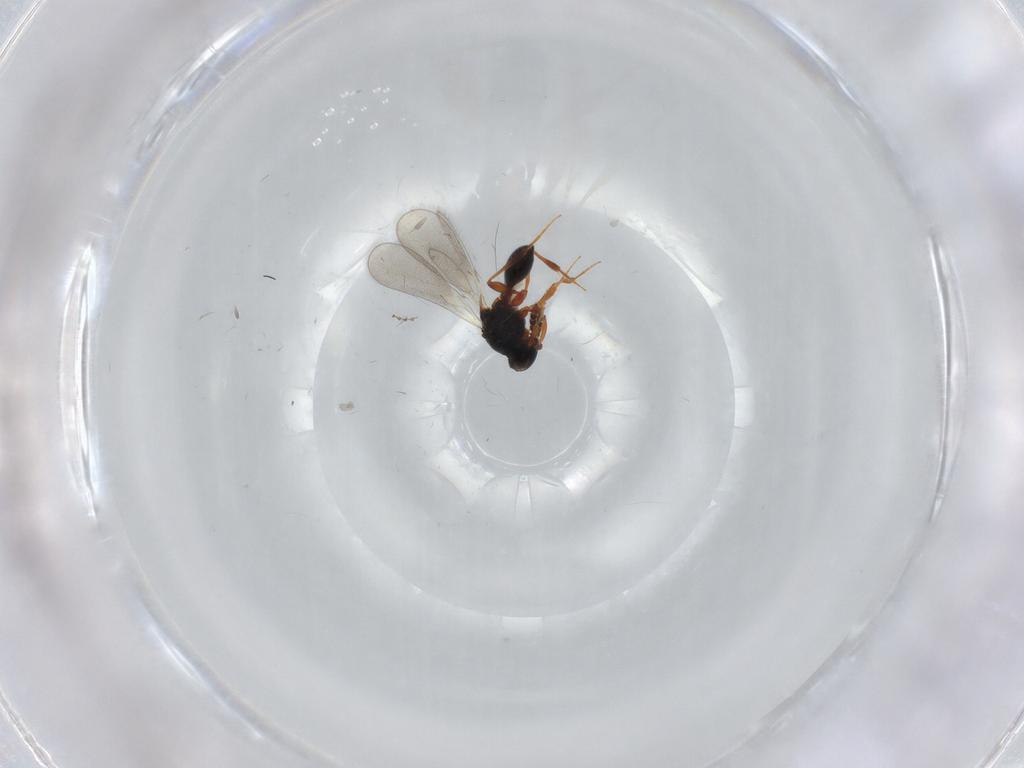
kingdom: Animalia
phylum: Arthropoda
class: Insecta
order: Hymenoptera
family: Platygastridae
